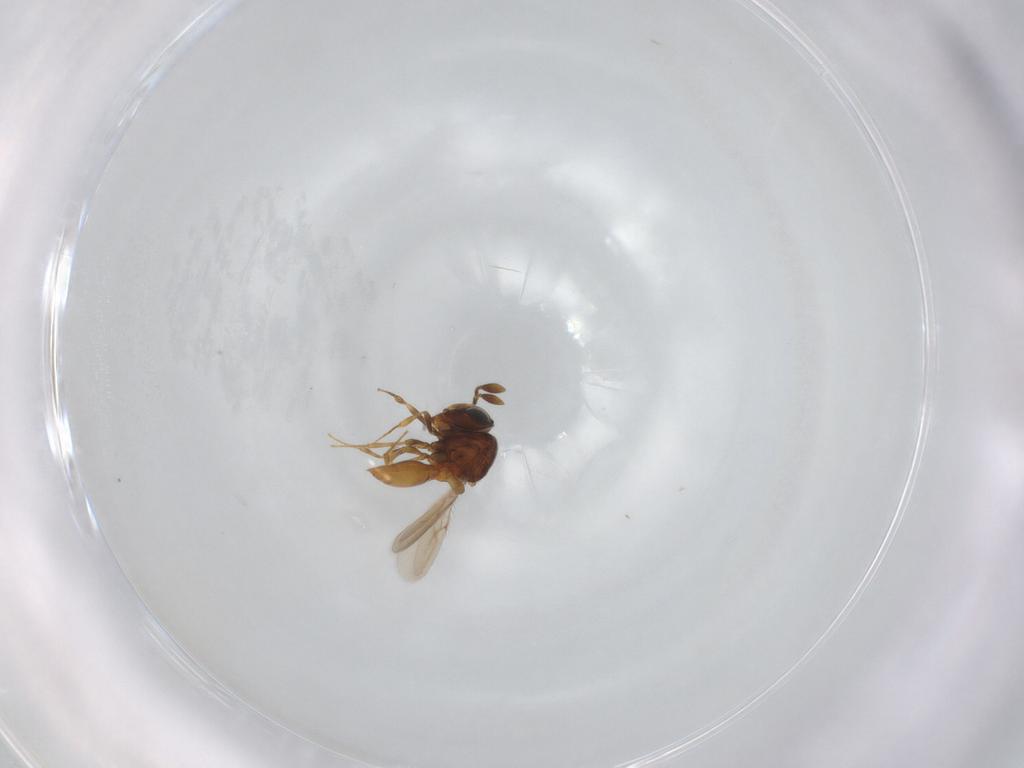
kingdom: Animalia
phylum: Arthropoda
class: Insecta
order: Hymenoptera
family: Scelionidae
